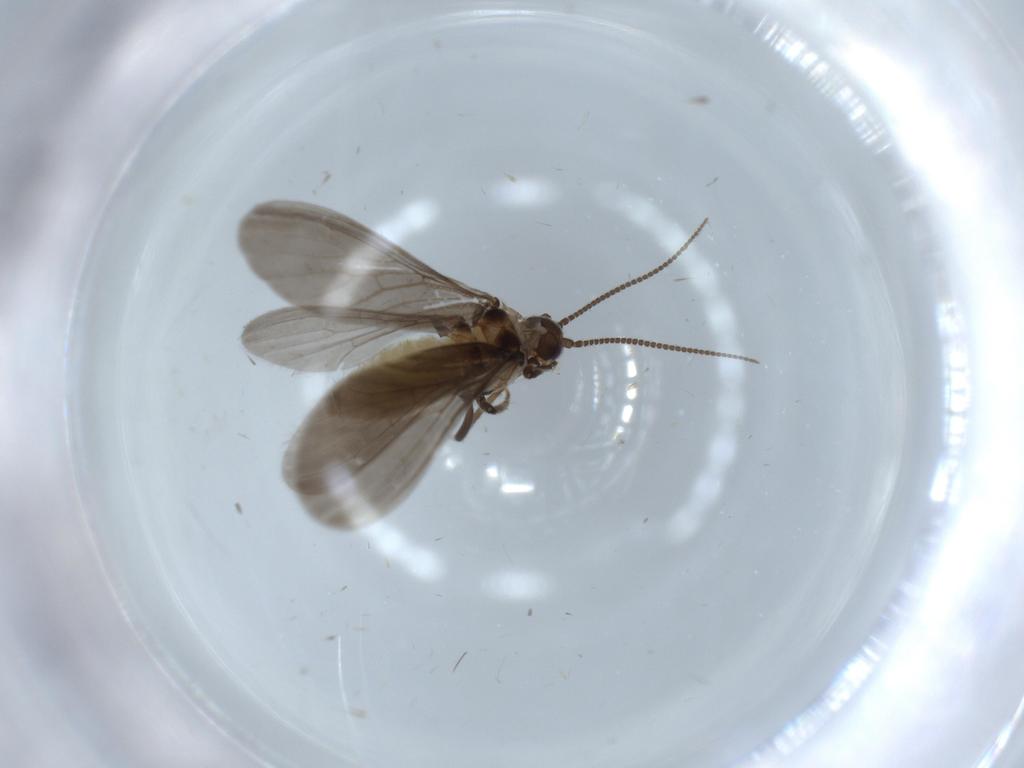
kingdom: Animalia
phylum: Arthropoda
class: Insecta
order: Neuroptera
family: Coniopterygidae
